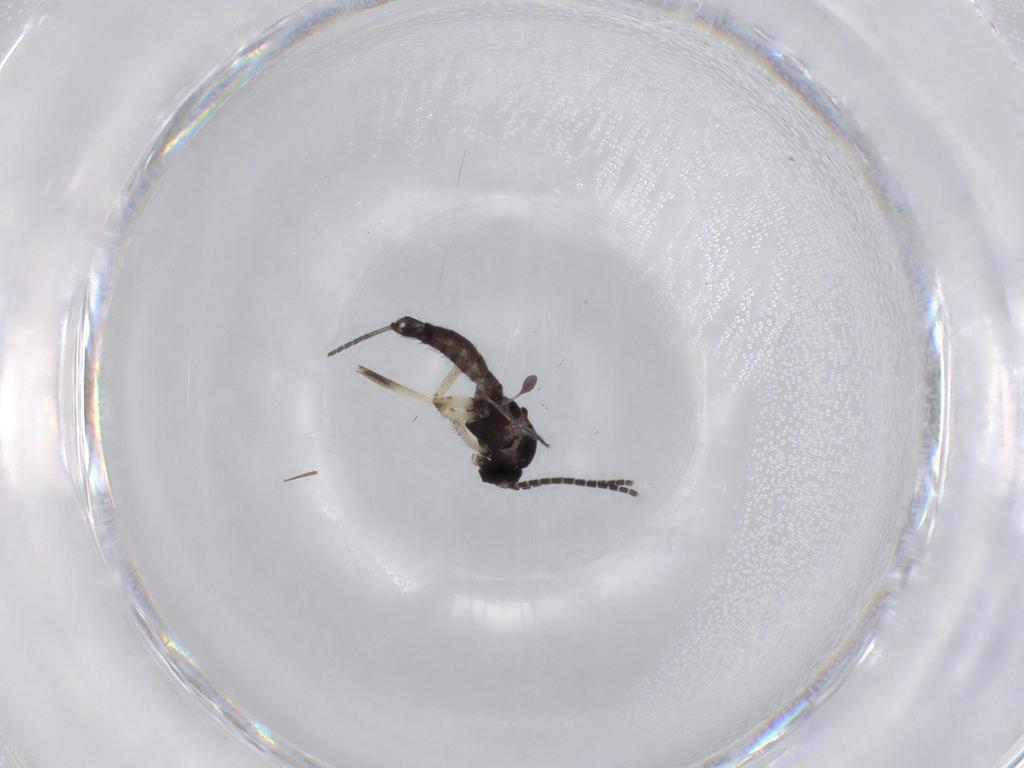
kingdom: Animalia
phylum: Arthropoda
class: Insecta
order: Diptera
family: Sciaridae
